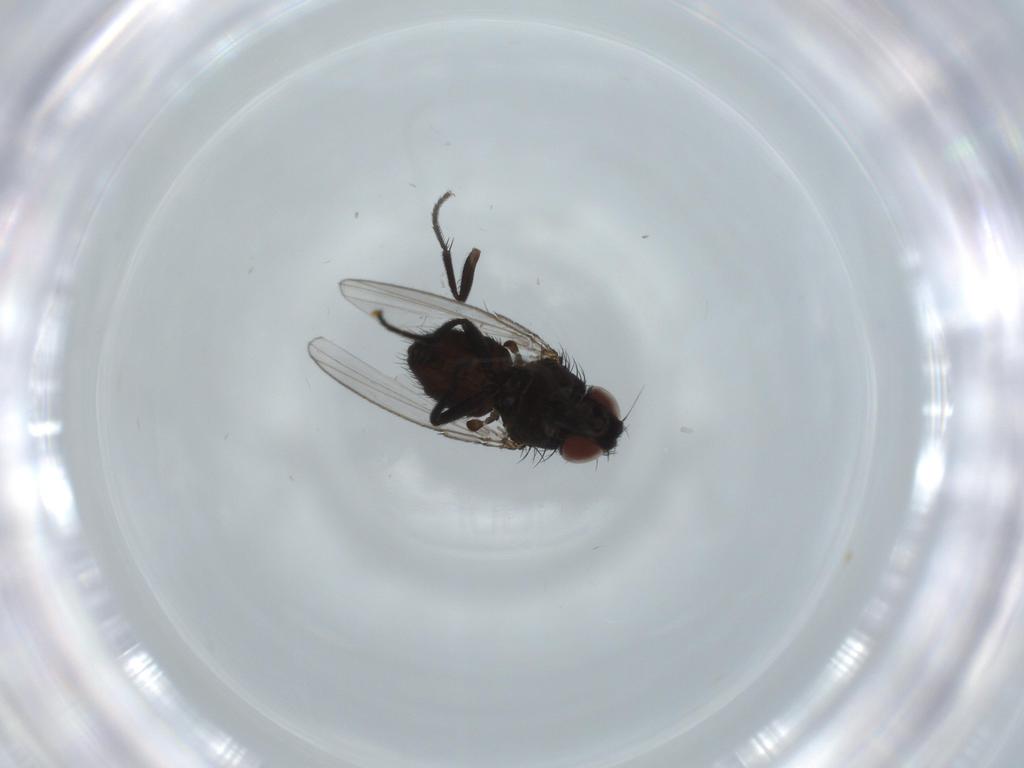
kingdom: Animalia
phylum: Arthropoda
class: Insecta
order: Diptera
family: Milichiidae
